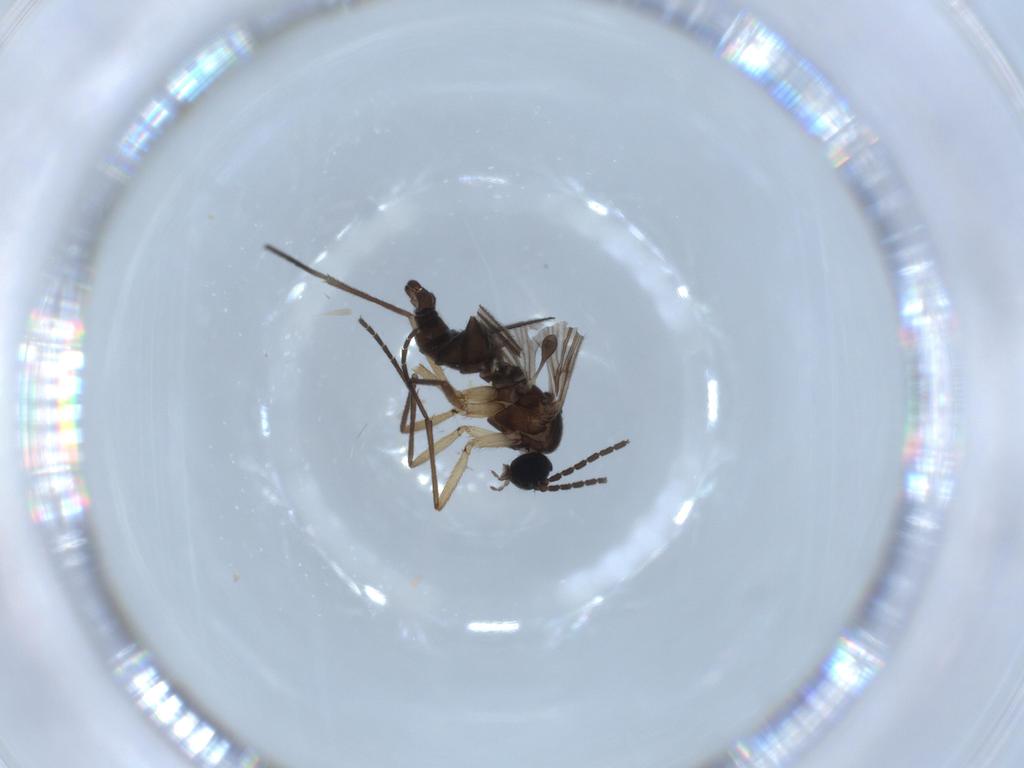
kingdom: Animalia
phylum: Arthropoda
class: Insecta
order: Diptera
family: Sciaridae
